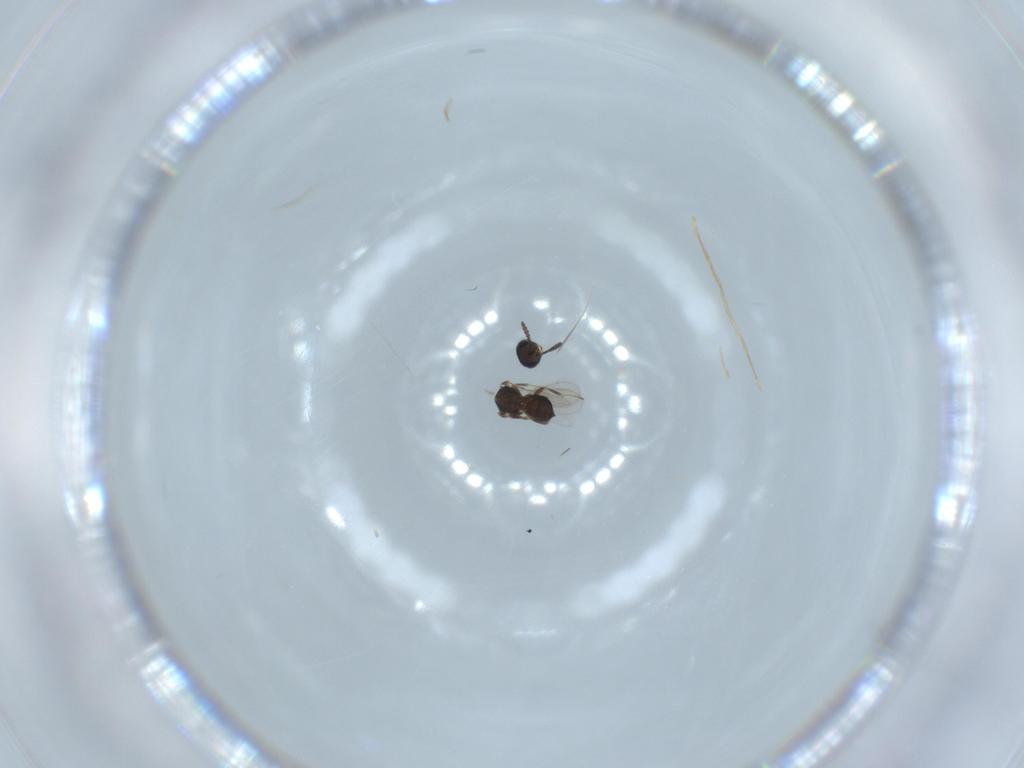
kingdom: Animalia
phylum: Arthropoda
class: Insecta
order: Hymenoptera
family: Scelionidae
